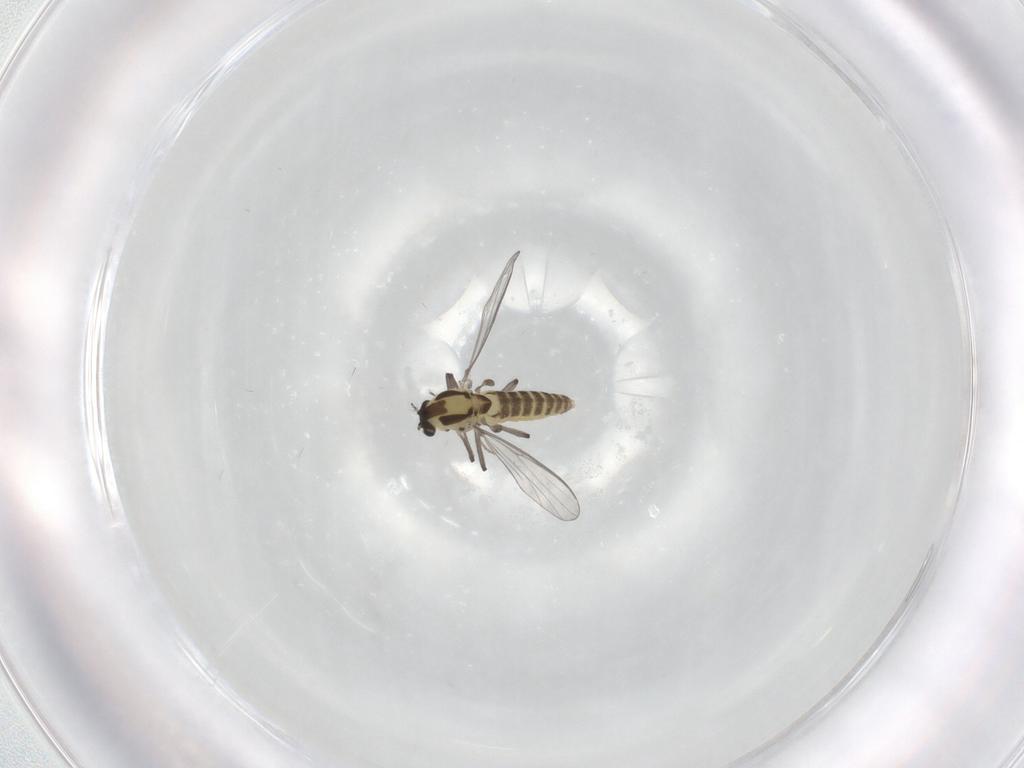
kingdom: Animalia
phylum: Arthropoda
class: Insecta
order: Diptera
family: Chironomidae
